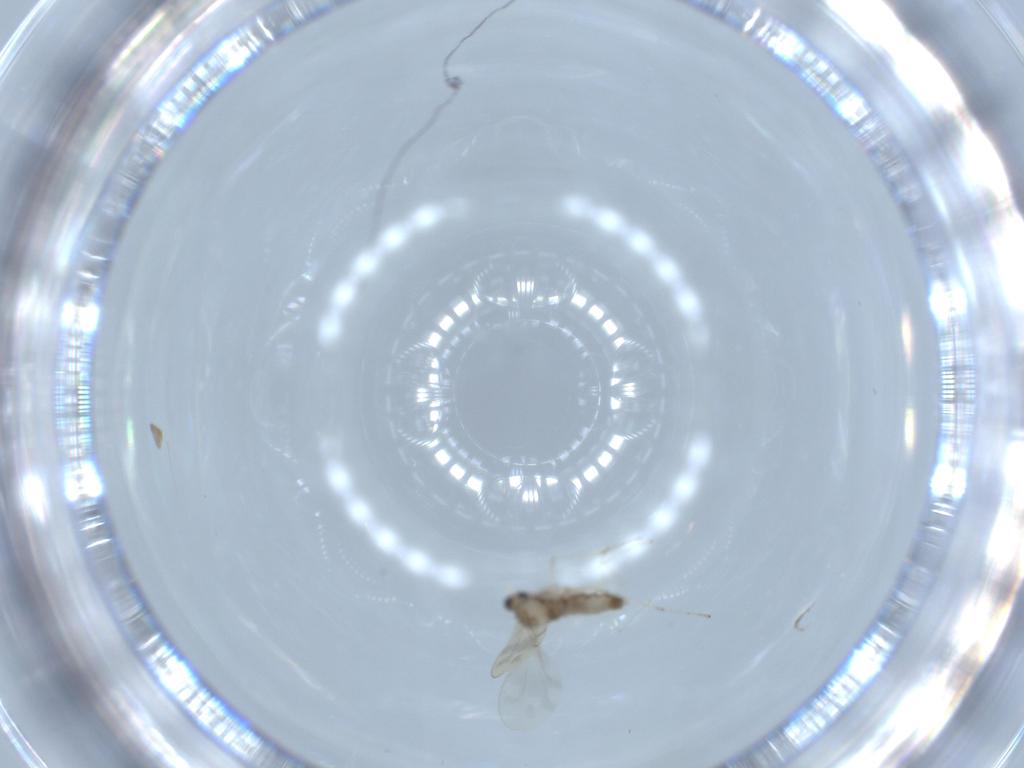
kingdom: Animalia
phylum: Arthropoda
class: Insecta
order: Diptera
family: Cecidomyiidae
